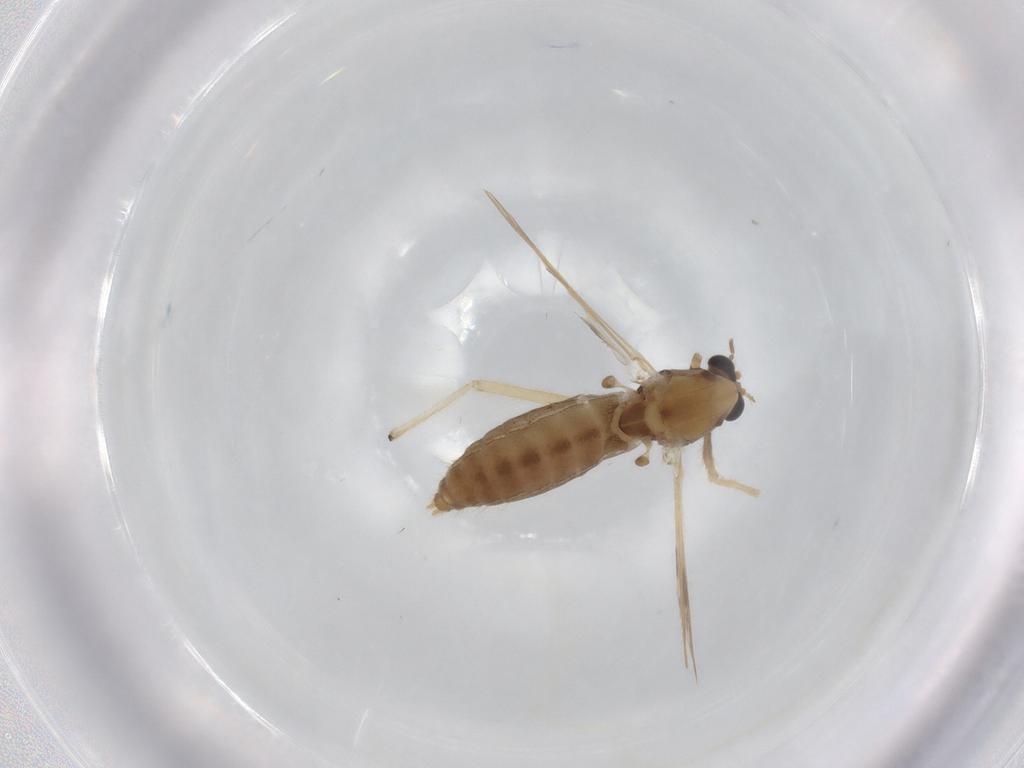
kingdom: Animalia
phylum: Arthropoda
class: Insecta
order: Diptera
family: Chironomidae
